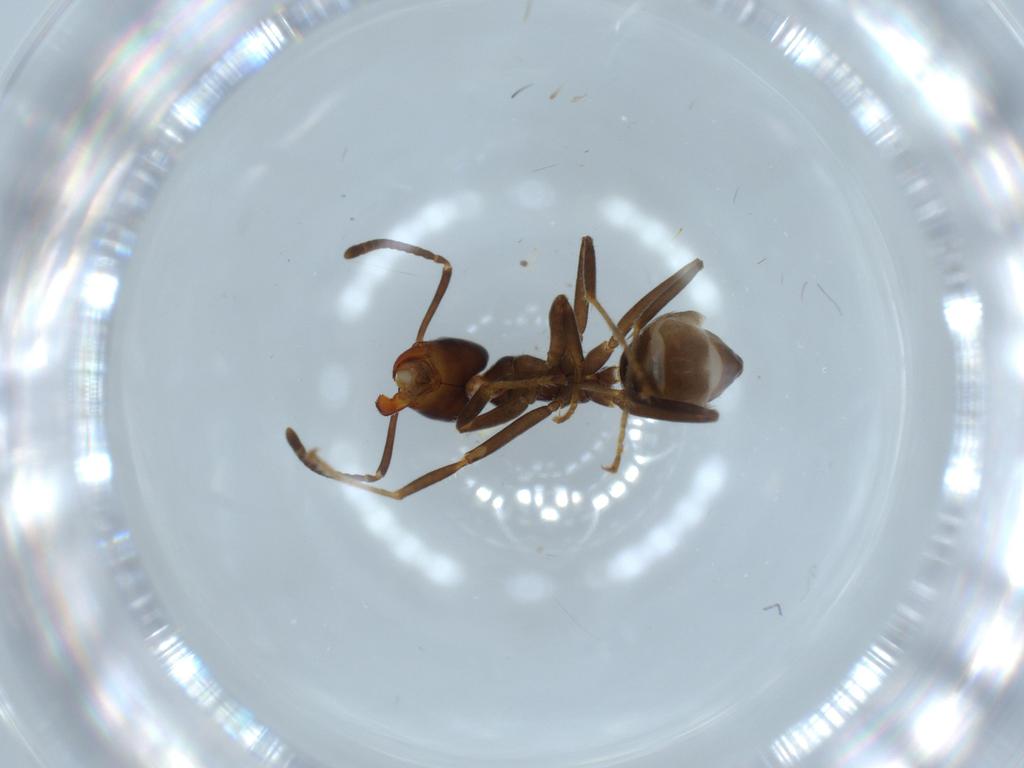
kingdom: Animalia
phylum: Arthropoda
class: Insecta
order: Hymenoptera
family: Formicidae
